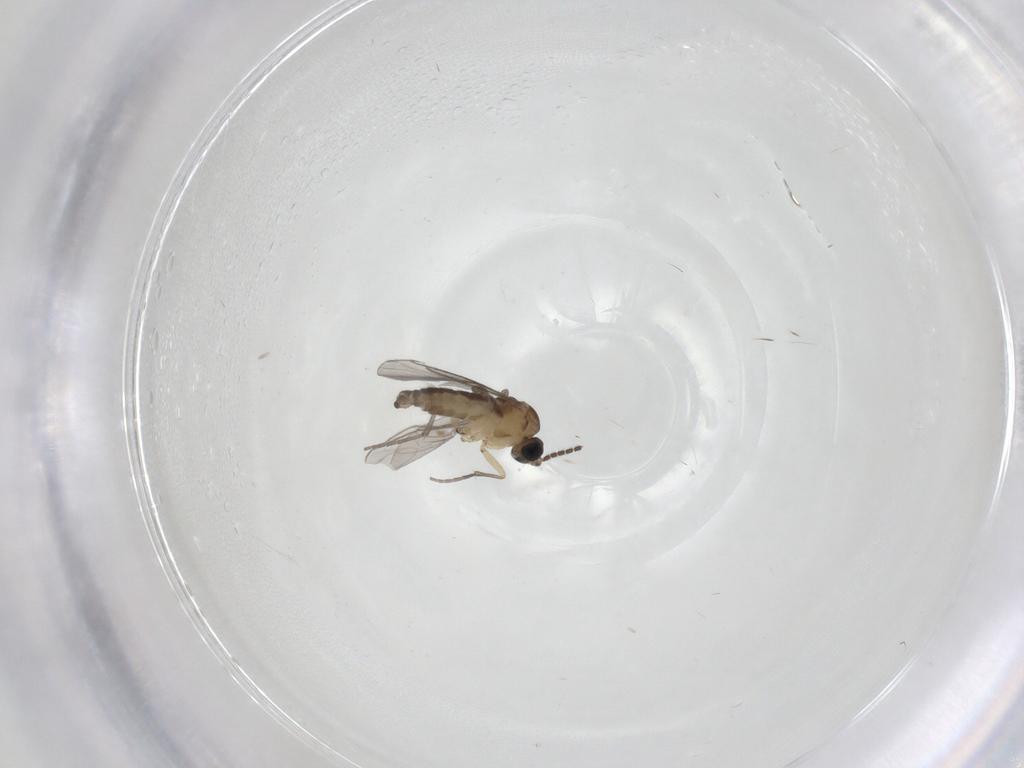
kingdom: Animalia
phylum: Arthropoda
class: Insecta
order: Diptera
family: Sciaridae
